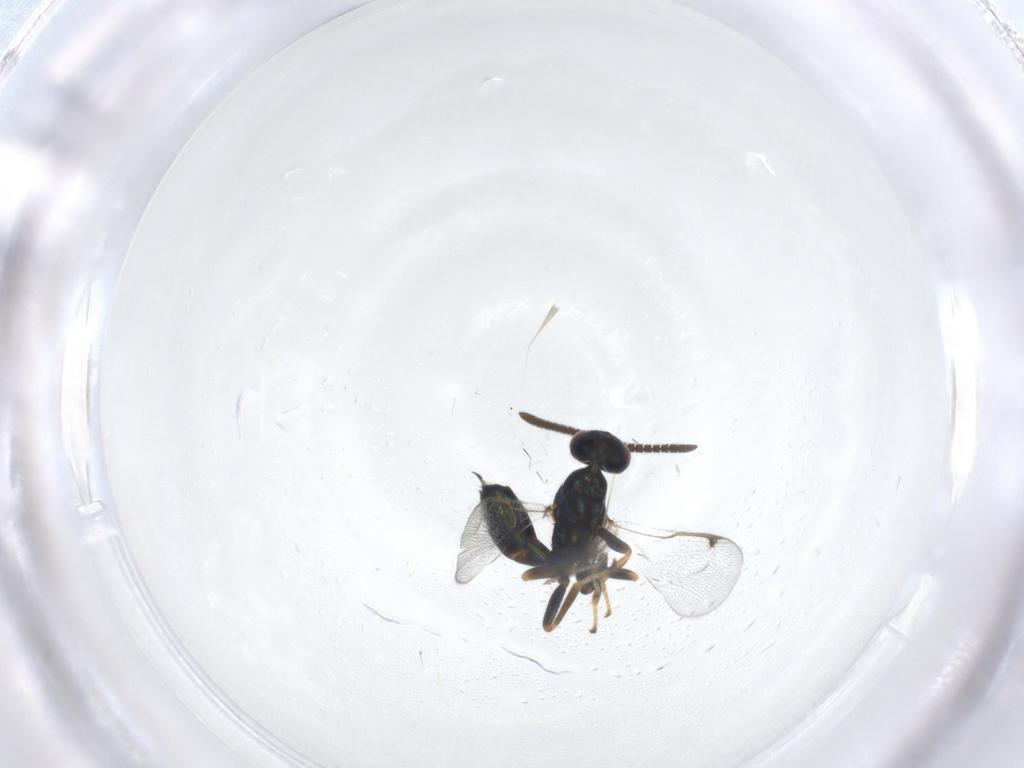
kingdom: Animalia
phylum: Arthropoda
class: Insecta
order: Hymenoptera
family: Torymidae
